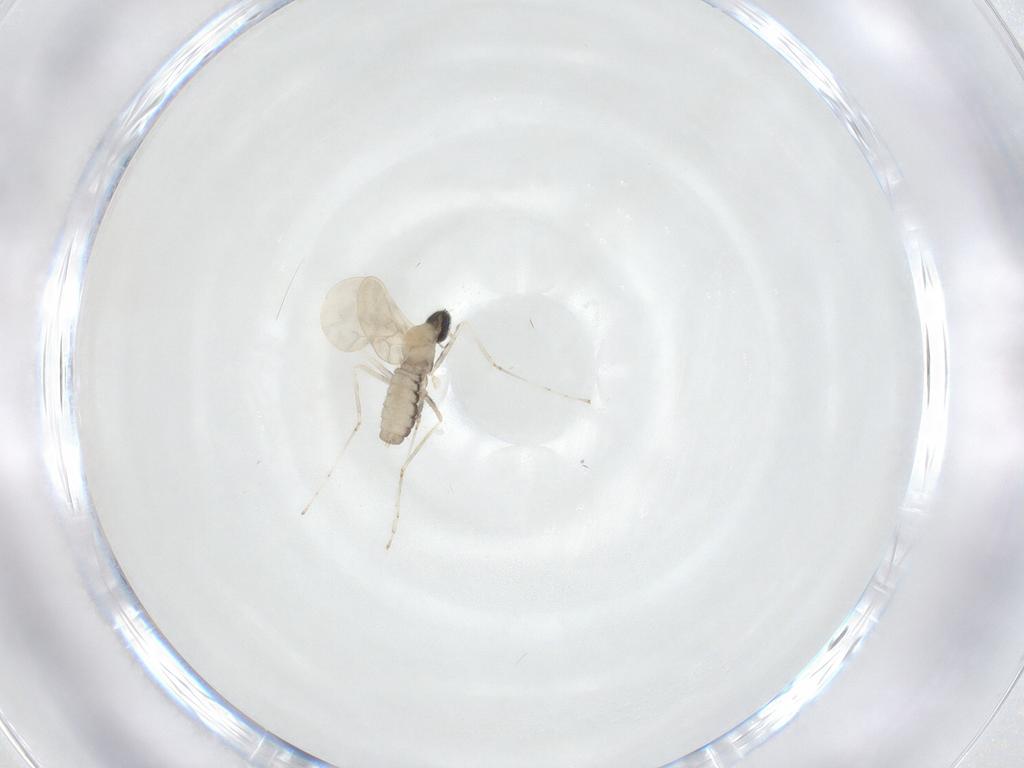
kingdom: Animalia
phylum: Arthropoda
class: Insecta
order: Diptera
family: Cecidomyiidae
